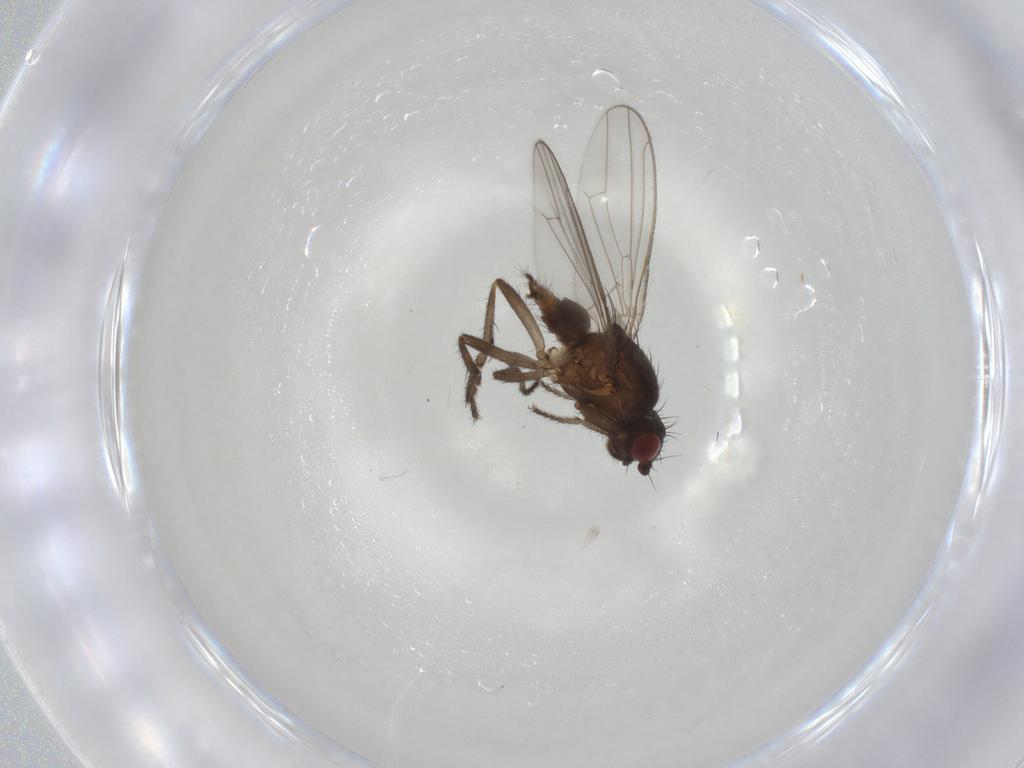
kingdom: Animalia
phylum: Arthropoda
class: Insecta
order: Diptera
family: Sphaeroceridae
